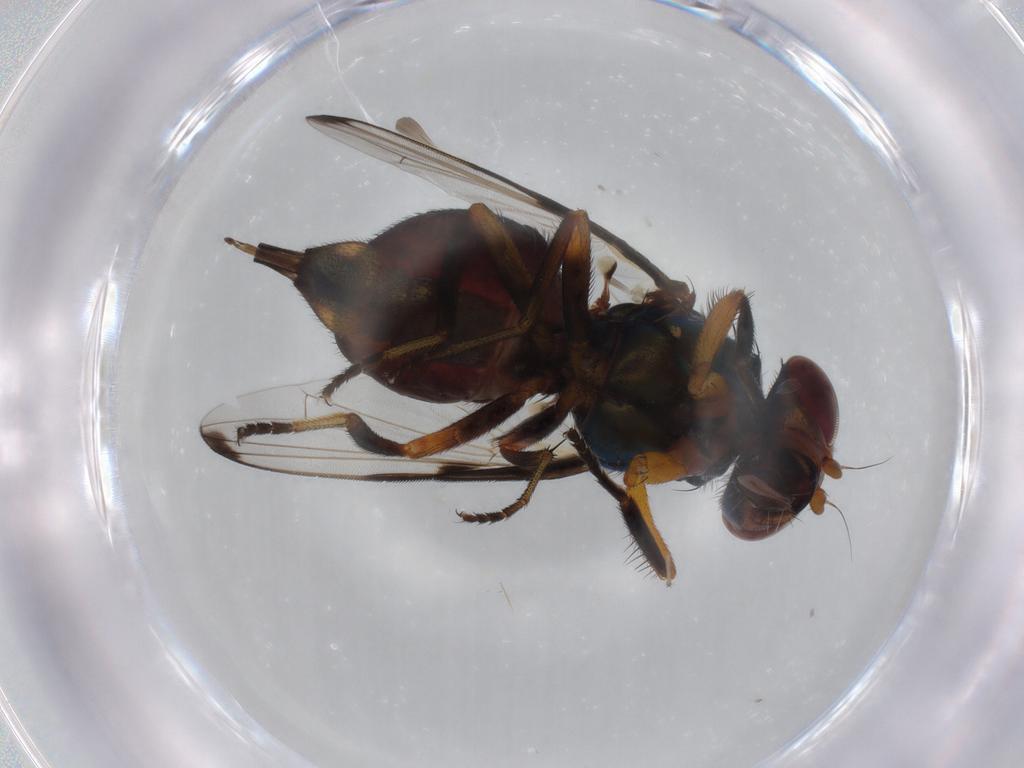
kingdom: Animalia
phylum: Arthropoda
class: Insecta
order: Diptera
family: Ulidiidae
